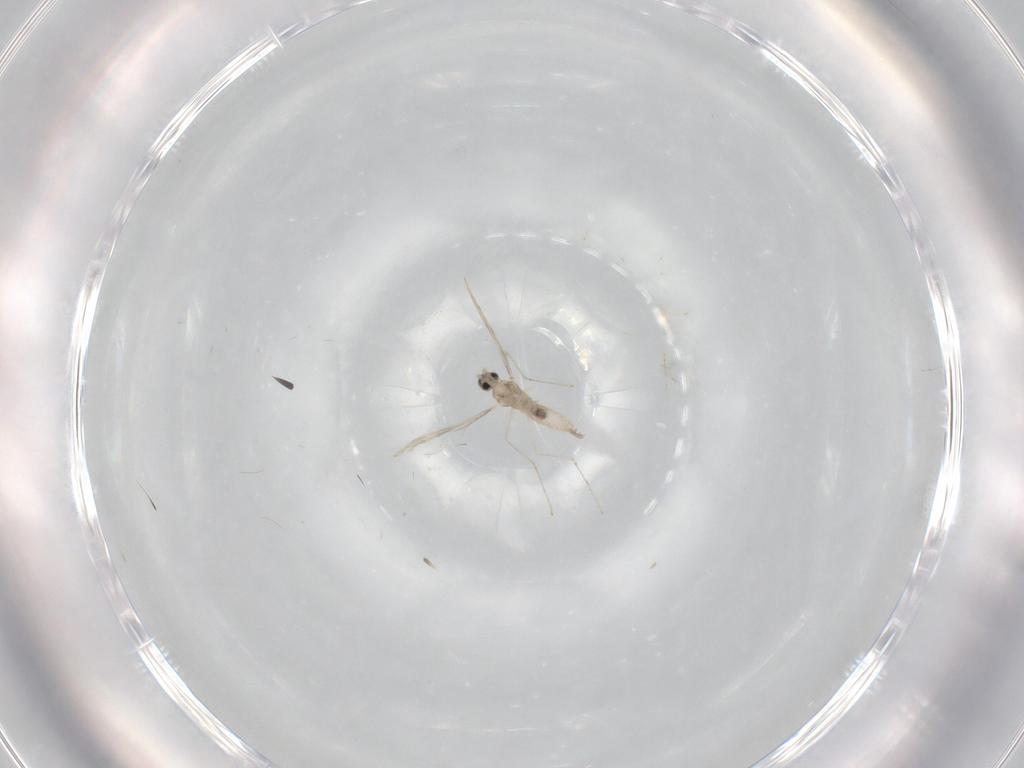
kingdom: Animalia
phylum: Arthropoda
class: Insecta
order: Diptera
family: Cecidomyiidae
